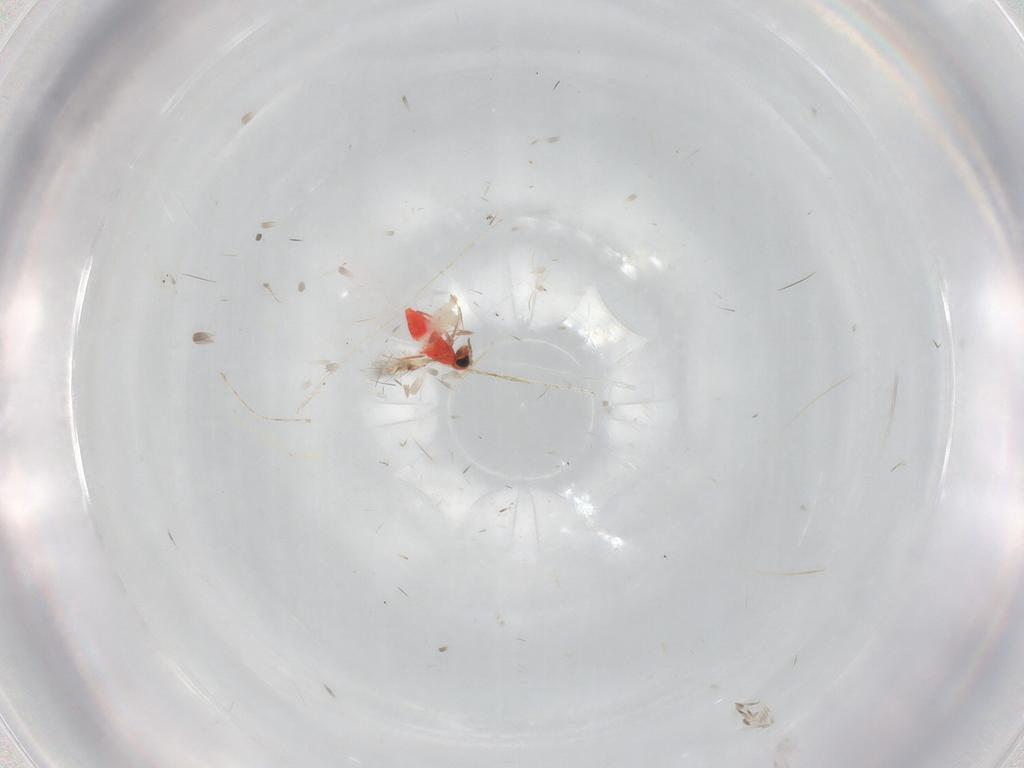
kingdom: Animalia
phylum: Arthropoda
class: Insecta
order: Hymenoptera
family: Trichogrammatidae
